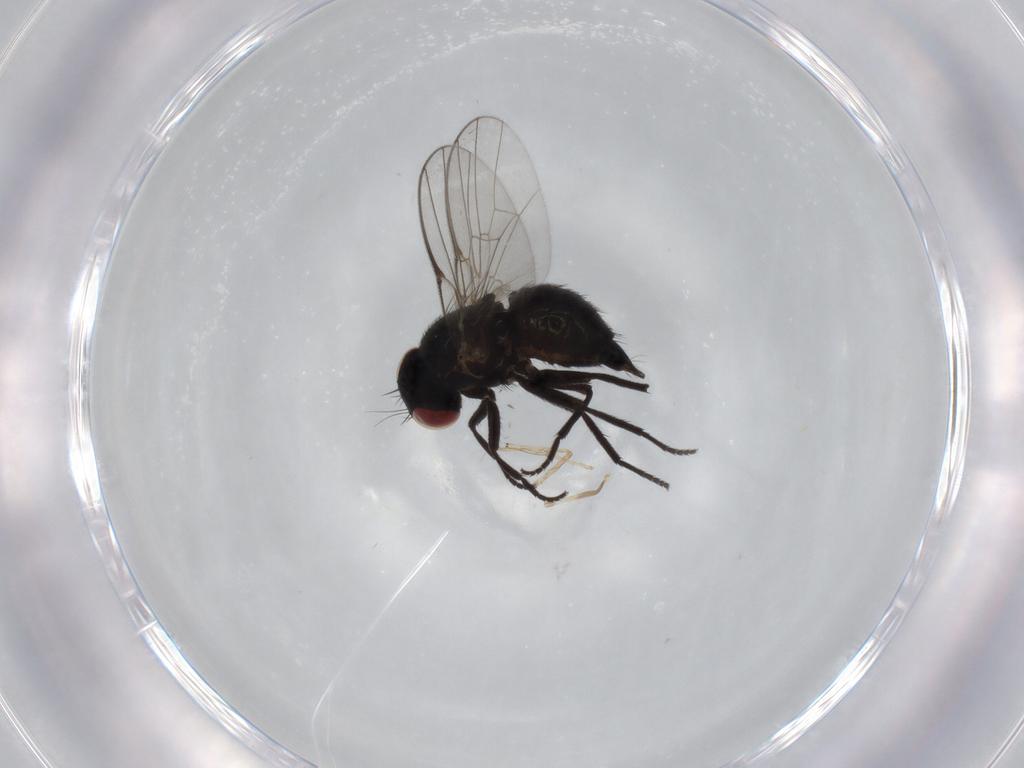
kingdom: Animalia
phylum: Arthropoda
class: Insecta
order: Diptera
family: Agromyzidae
